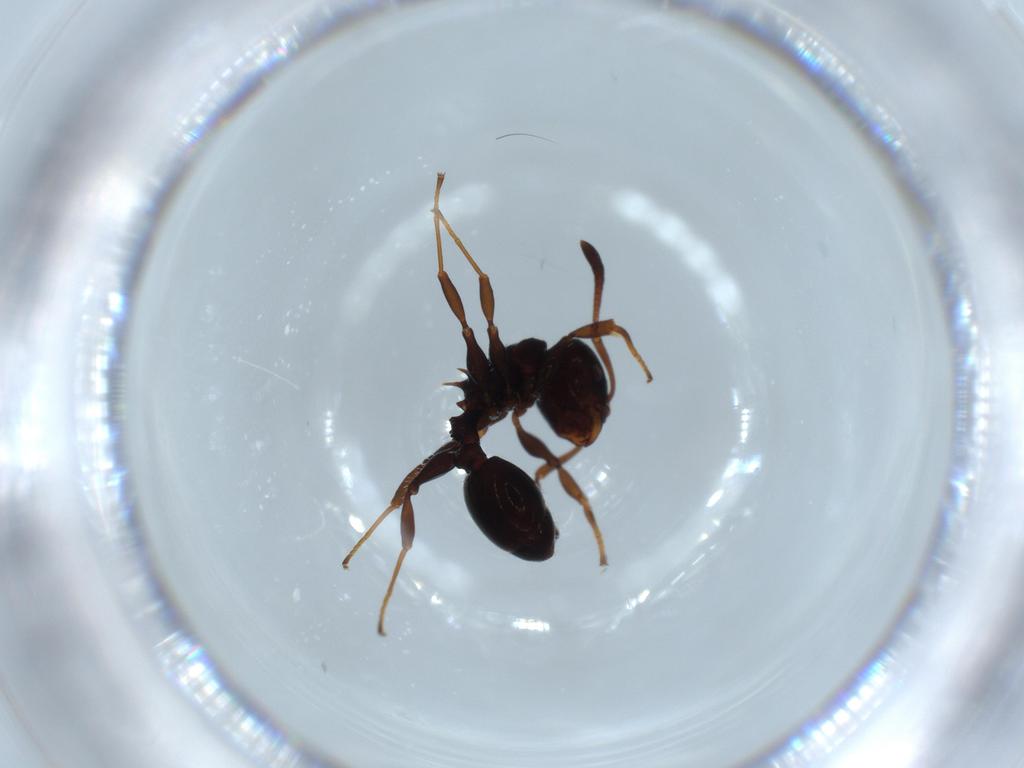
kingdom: Animalia
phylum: Arthropoda
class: Insecta
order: Hymenoptera
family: Formicidae
